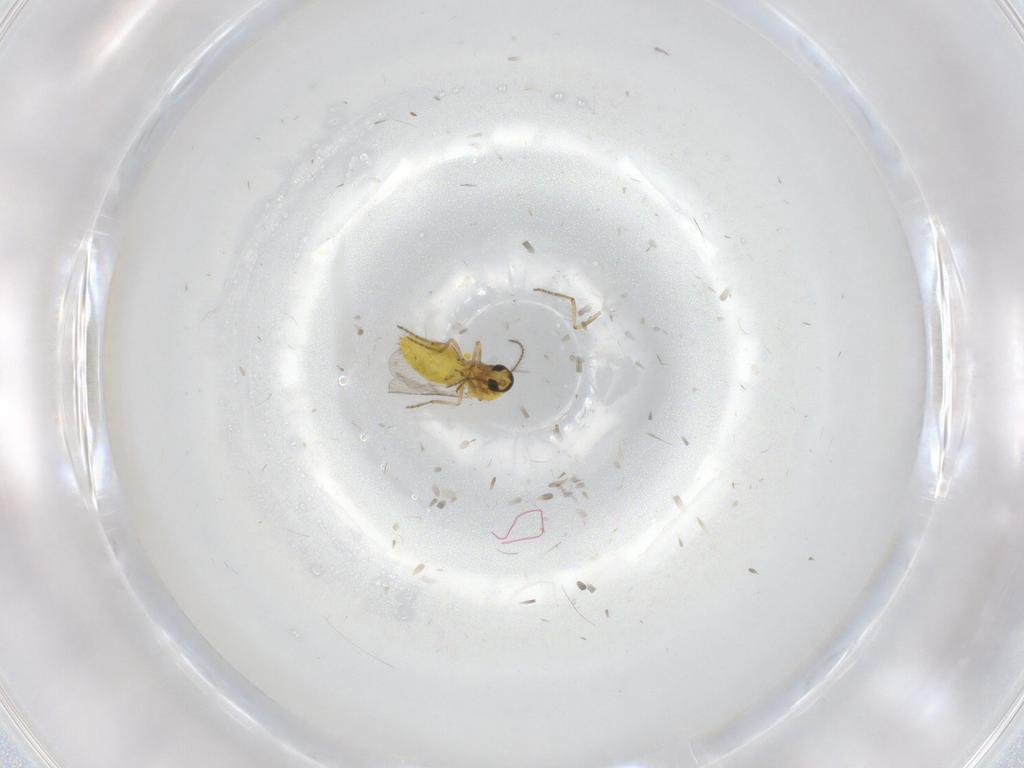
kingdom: Animalia
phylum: Arthropoda
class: Insecta
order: Diptera
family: Ceratopogonidae
